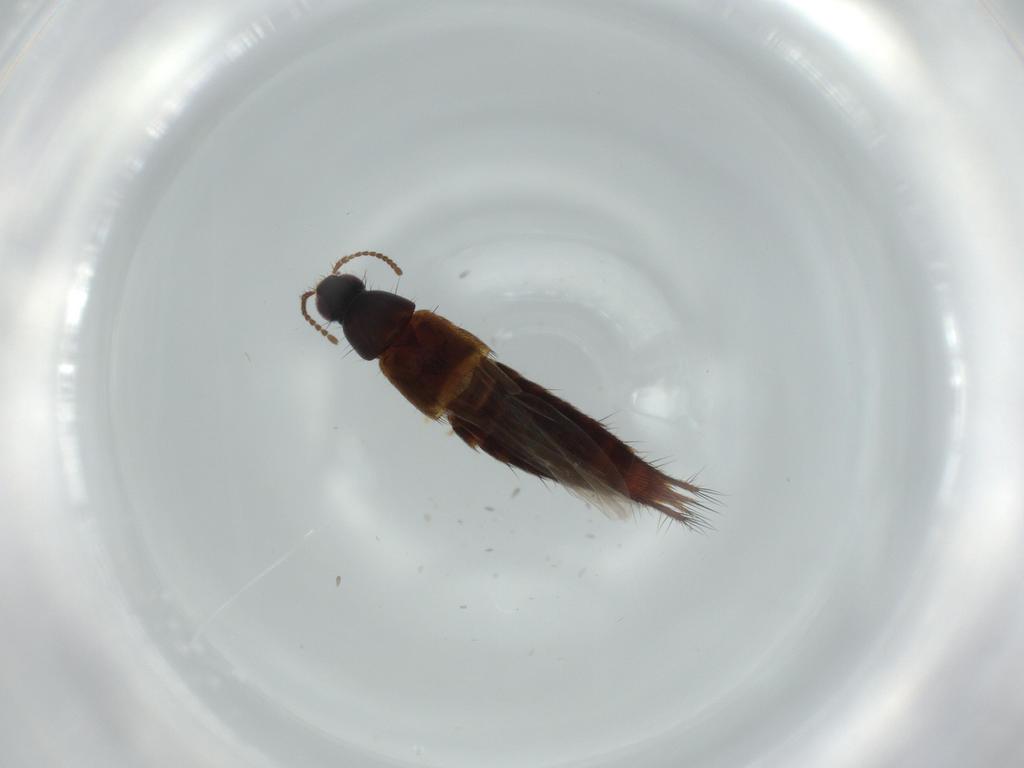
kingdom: Animalia
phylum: Arthropoda
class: Insecta
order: Coleoptera
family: Staphylinidae
